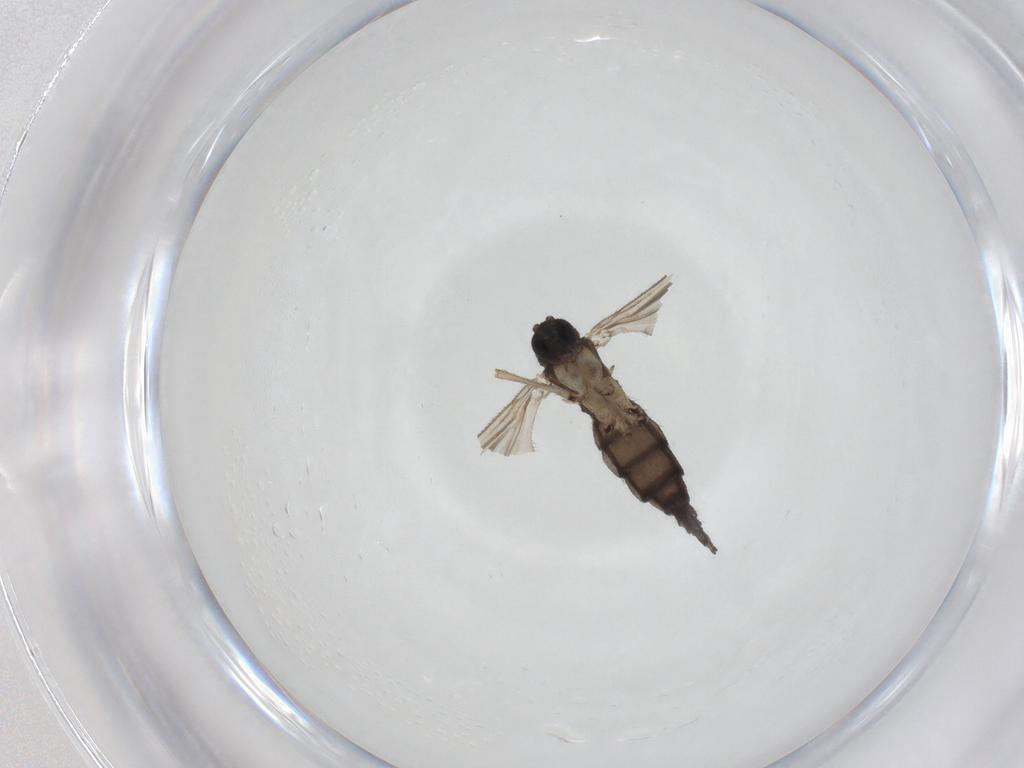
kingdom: Animalia
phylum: Arthropoda
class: Insecta
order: Diptera
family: Sciaridae
